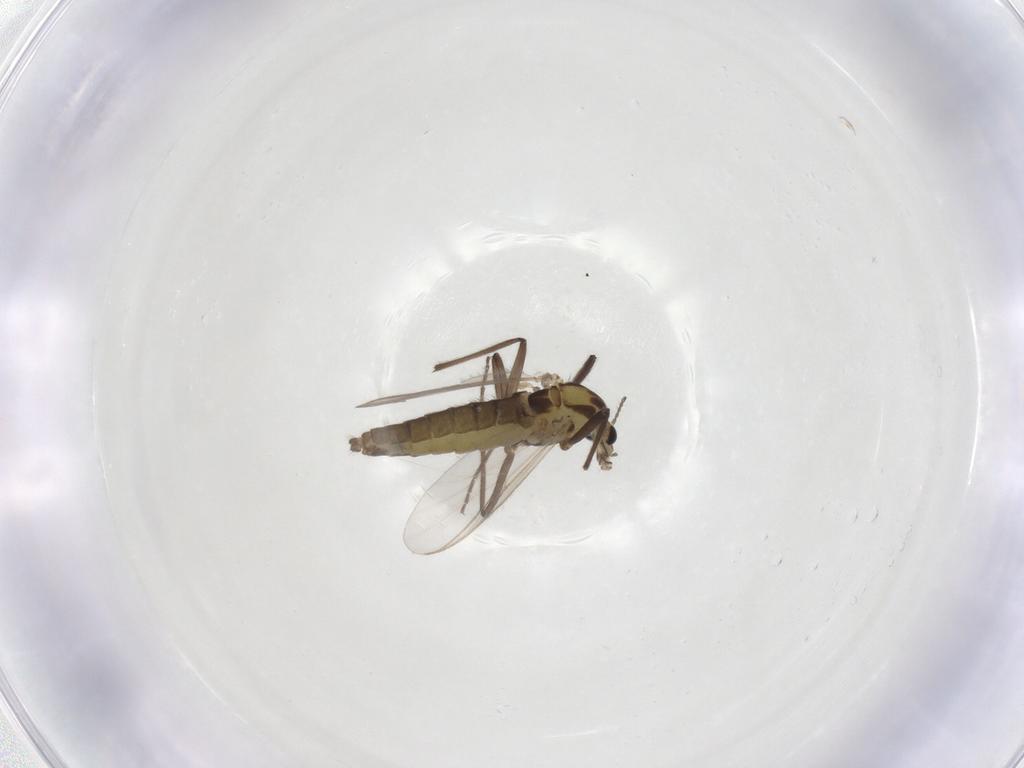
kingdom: Animalia
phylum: Arthropoda
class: Insecta
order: Diptera
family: Chironomidae
